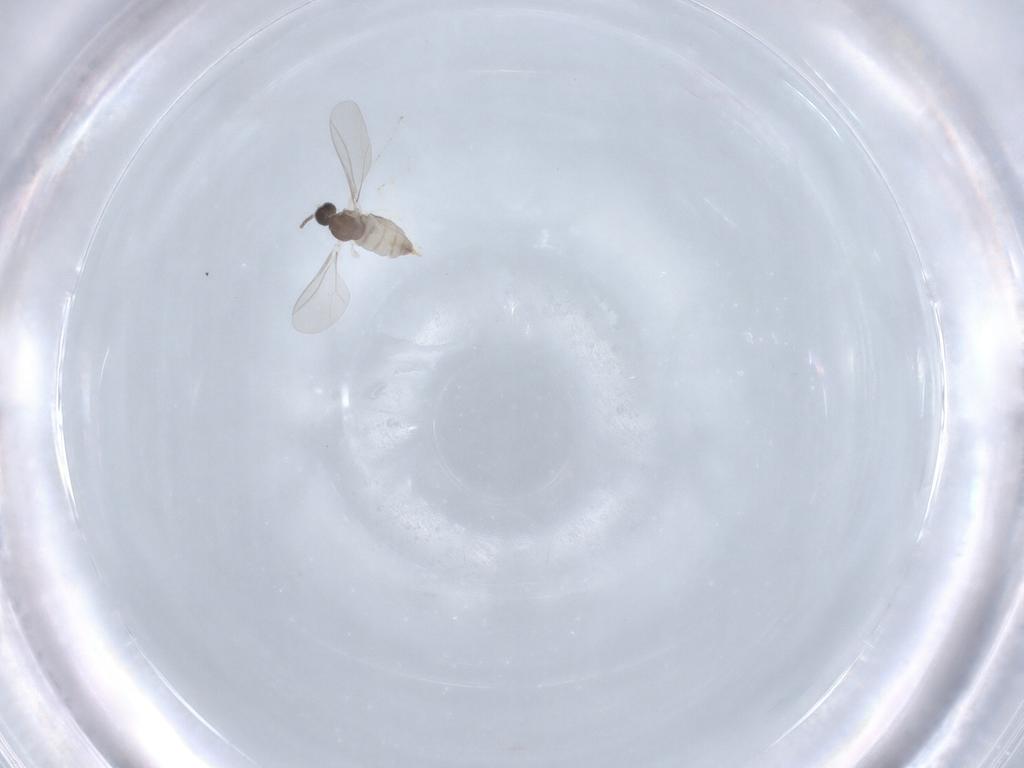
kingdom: Animalia
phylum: Arthropoda
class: Insecta
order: Diptera
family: Cecidomyiidae
